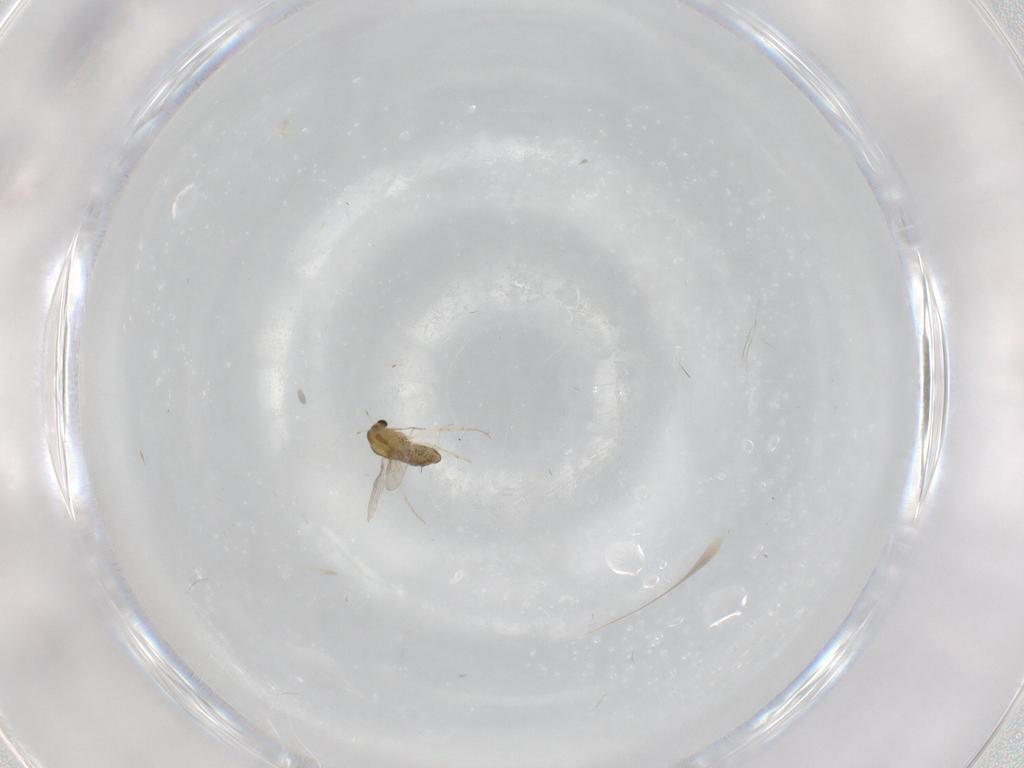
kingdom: Animalia
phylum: Arthropoda
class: Insecta
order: Diptera
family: Chironomidae
